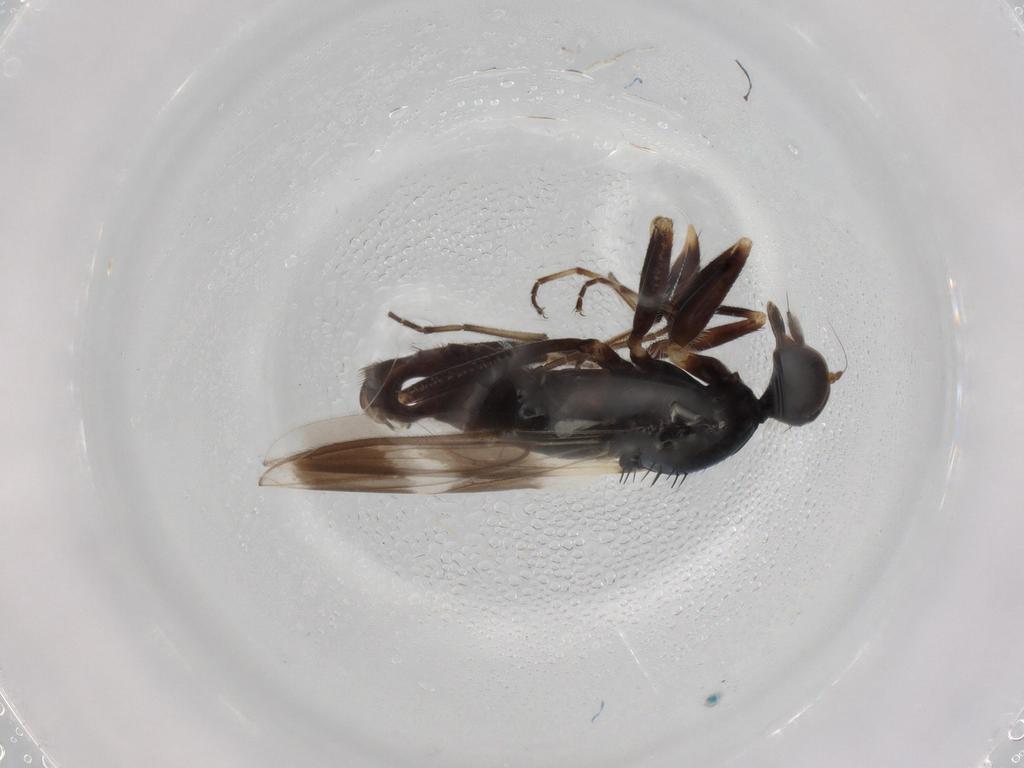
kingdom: Animalia
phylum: Arthropoda
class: Insecta
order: Diptera
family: Hybotidae
